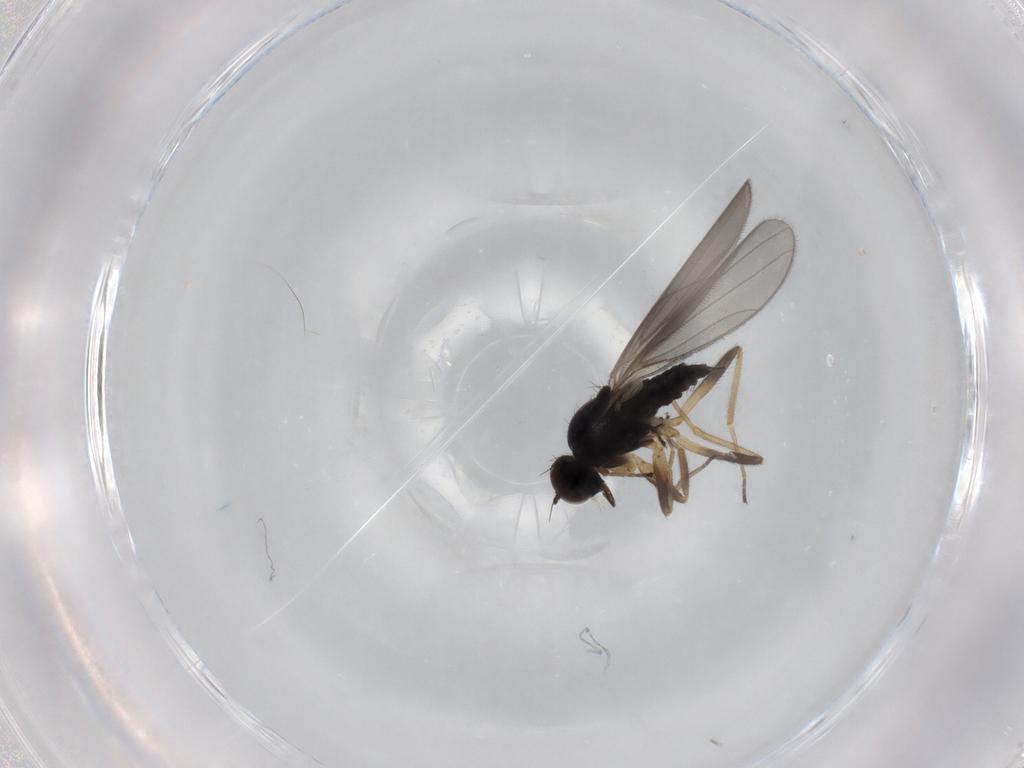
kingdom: Animalia
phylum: Arthropoda
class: Insecta
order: Diptera
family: Hybotidae
